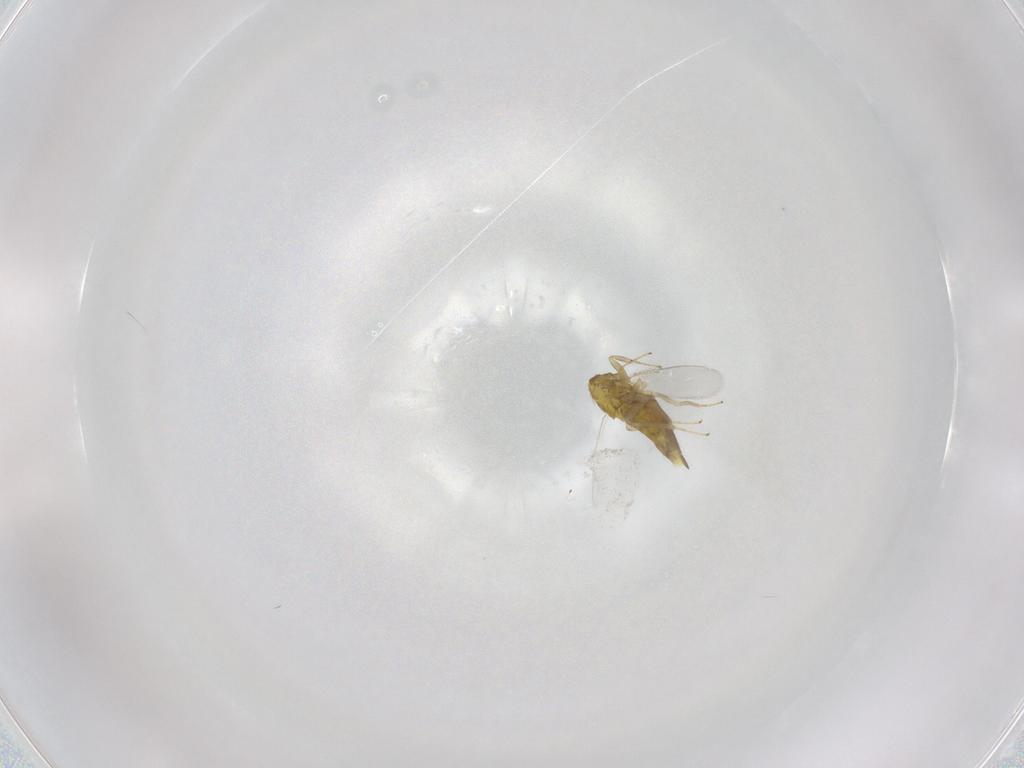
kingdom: Animalia
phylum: Arthropoda
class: Insecta
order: Hymenoptera
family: Aphelinidae
